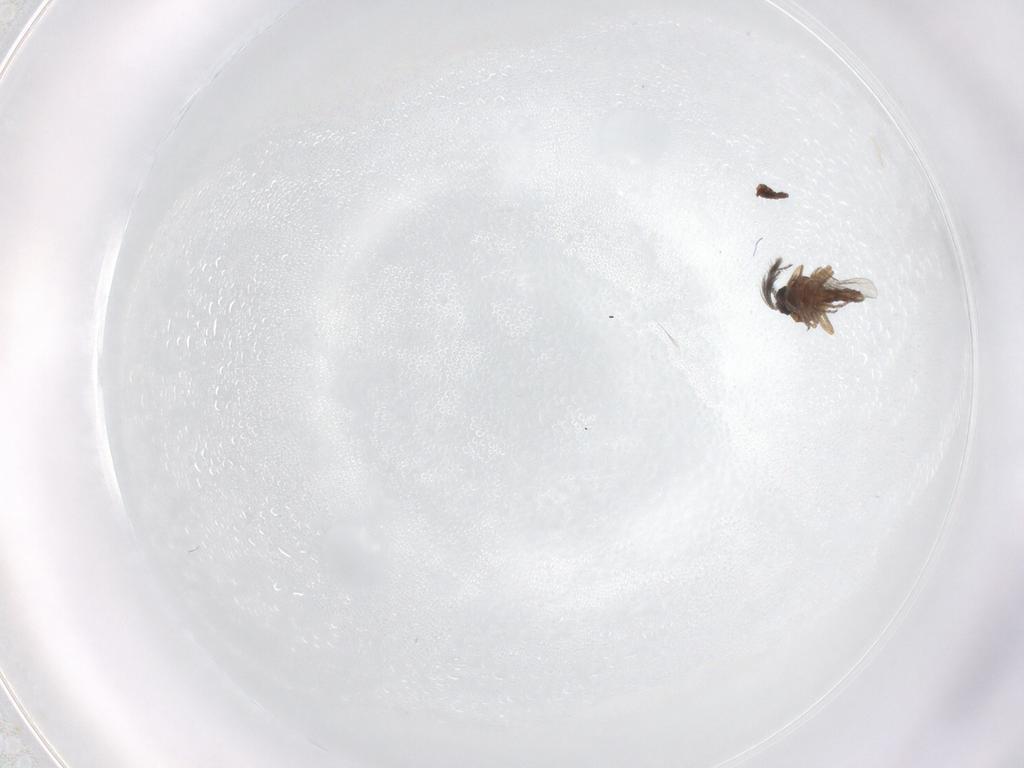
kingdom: Animalia
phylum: Arthropoda
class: Insecta
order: Diptera
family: Ceratopogonidae
